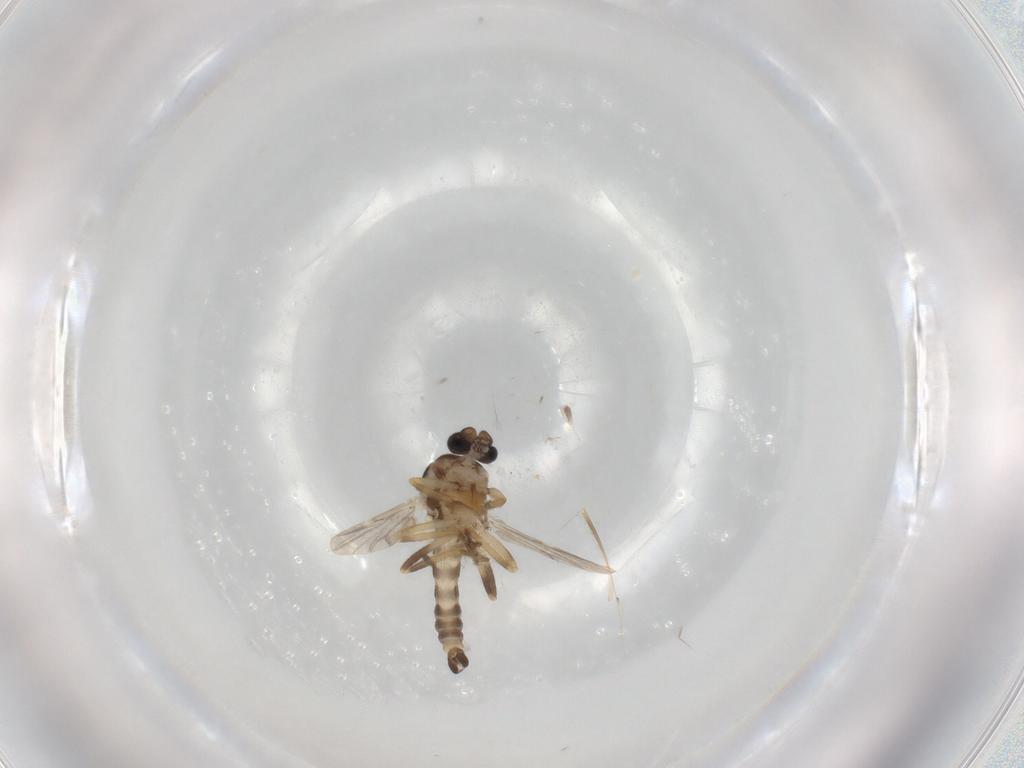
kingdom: Animalia
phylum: Arthropoda
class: Insecta
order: Diptera
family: Ceratopogonidae
